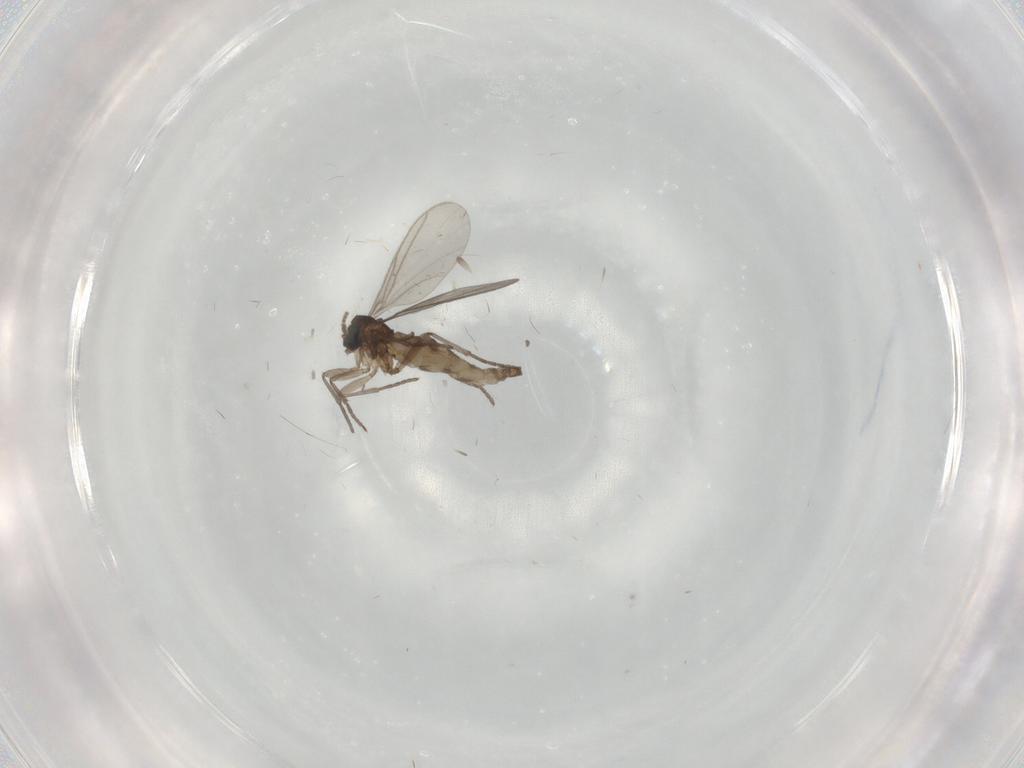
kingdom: Animalia
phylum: Arthropoda
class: Insecta
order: Diptera
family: Sciaridae
